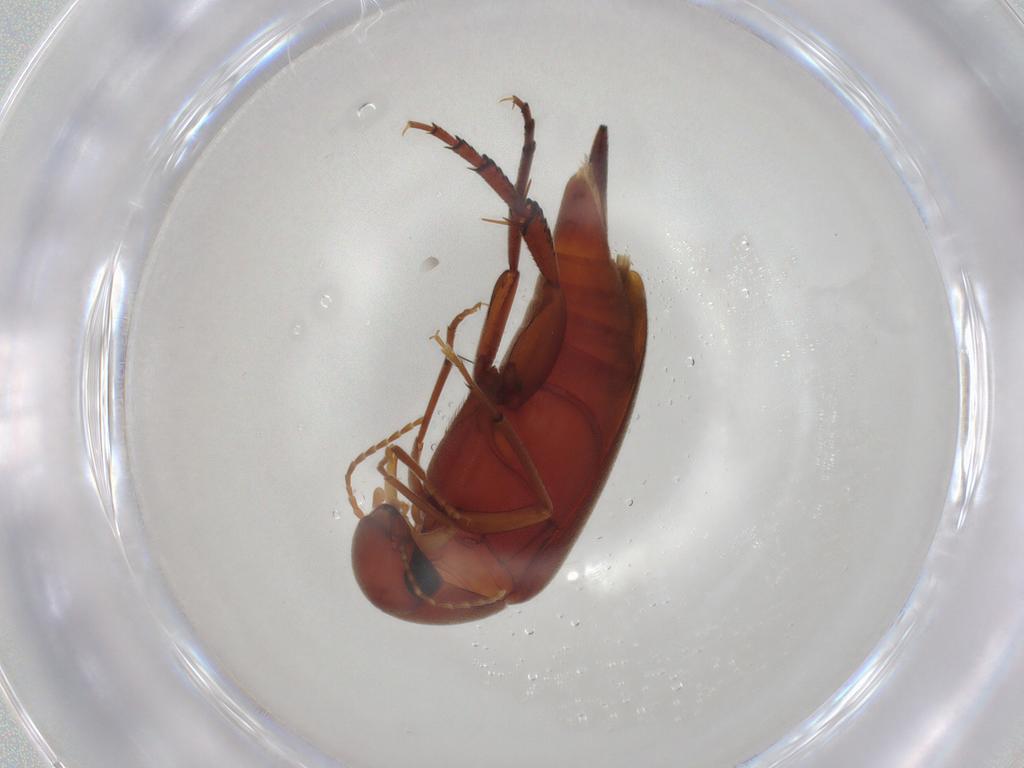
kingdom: Animalia
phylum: Arthropoda
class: Insecta
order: Coleoptera
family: Mordellidae
